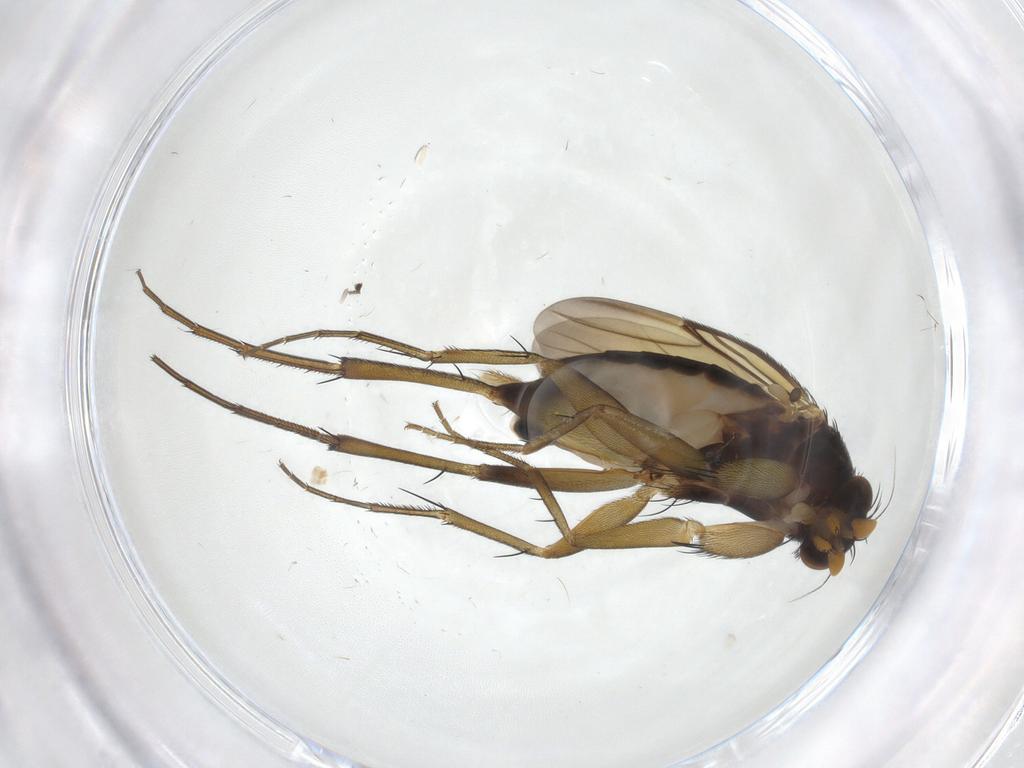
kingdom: Animalia
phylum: Arthropoda
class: Insecta
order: Diptera
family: Phoridae
